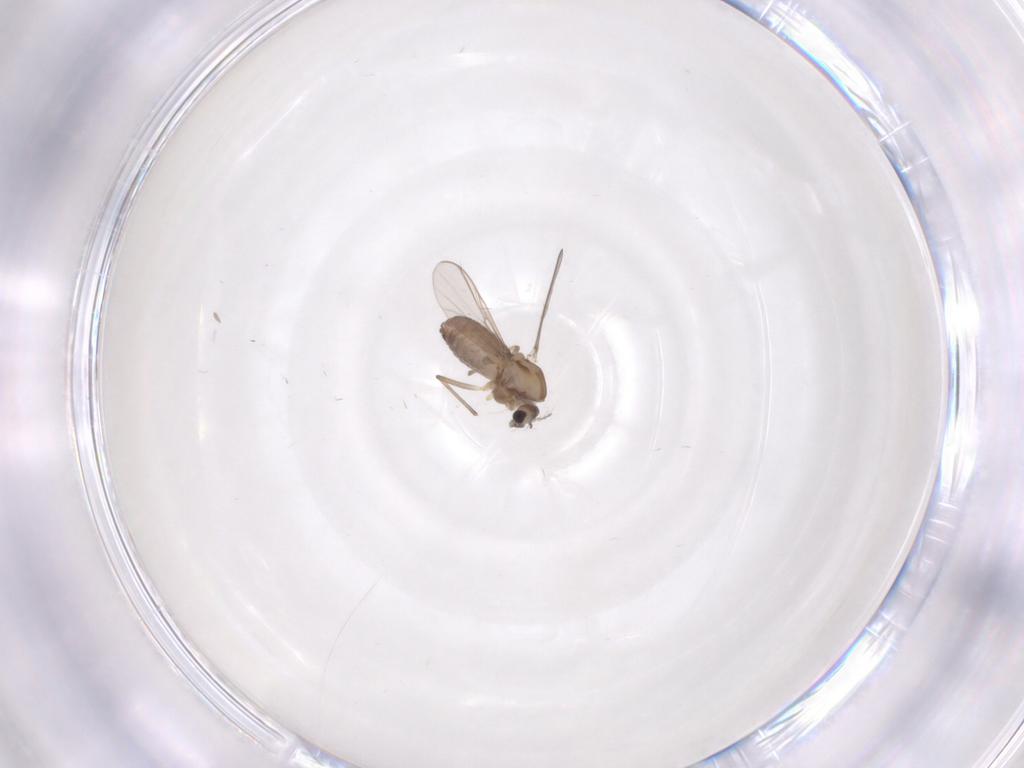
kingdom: Animalia
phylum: Arthropoda
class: Insecta
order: Diptera
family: Chironomidae
